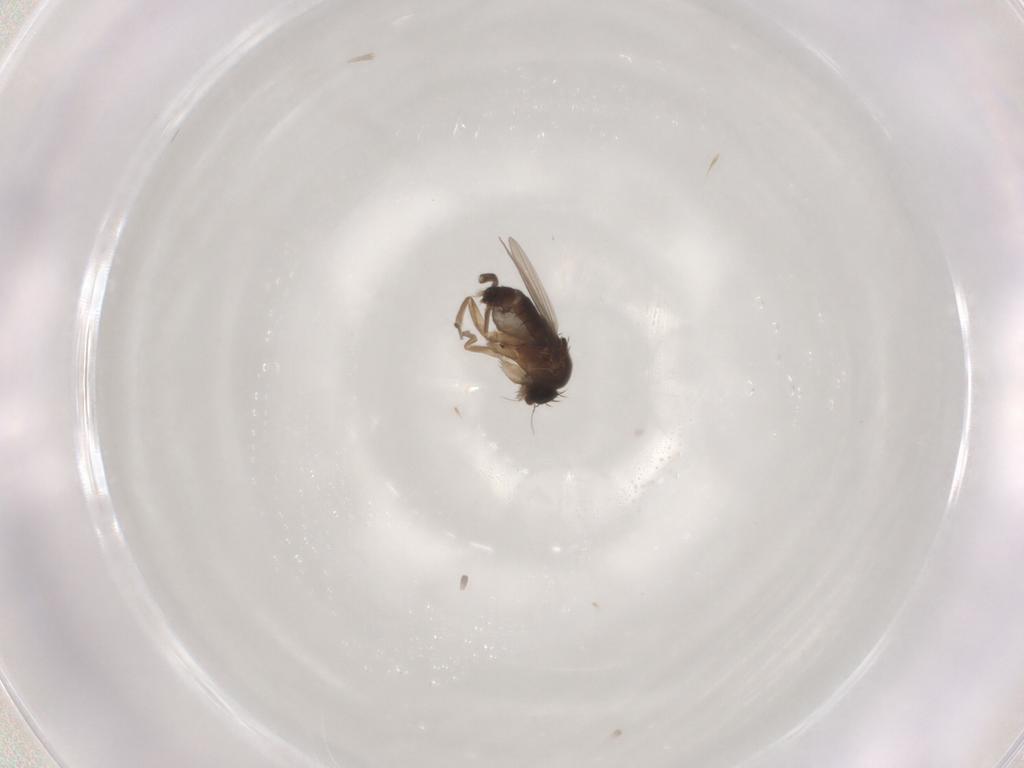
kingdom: Animalia
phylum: Arthropoda
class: Insecta
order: Diptera
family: Phoridae
